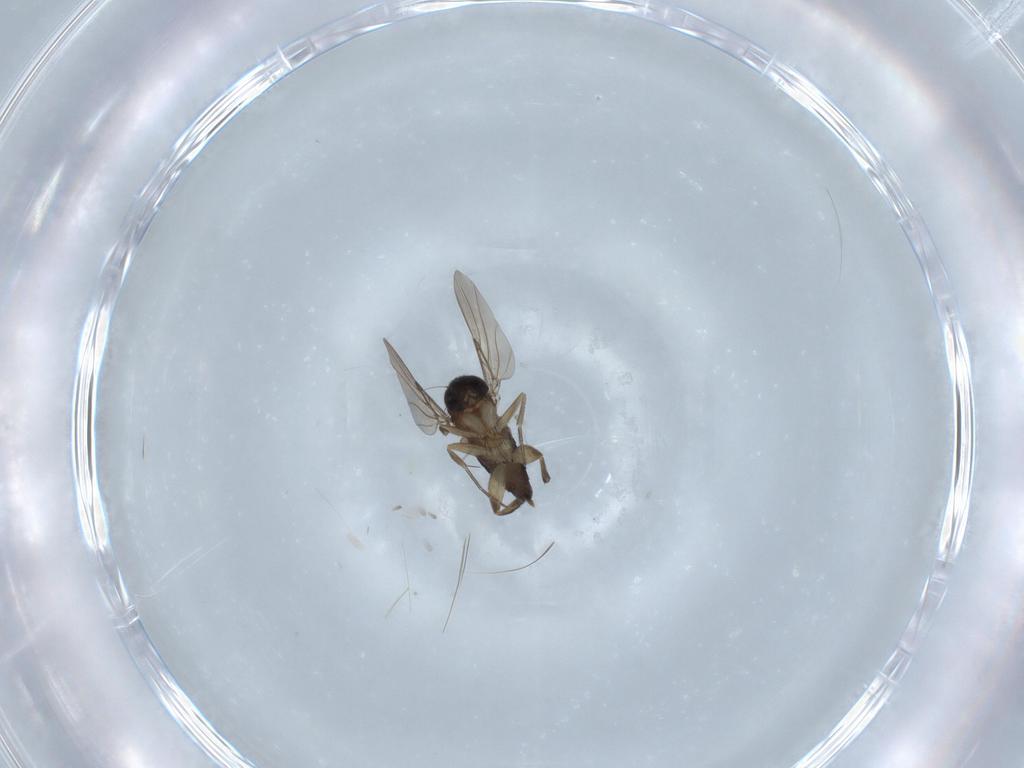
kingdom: Animalia
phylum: Arthropoda
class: Insecta
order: Diptera
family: Phoridae
